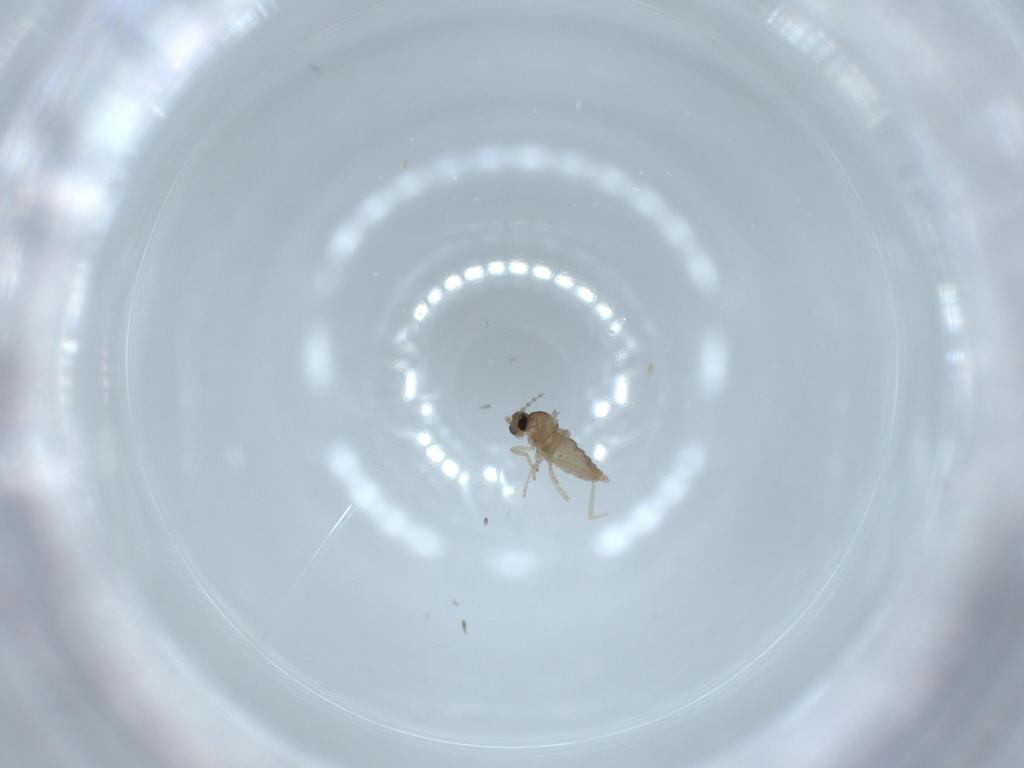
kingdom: Animalia
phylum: Arthropoda
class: Insecta
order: Diptera
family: Cecidomyiidae
